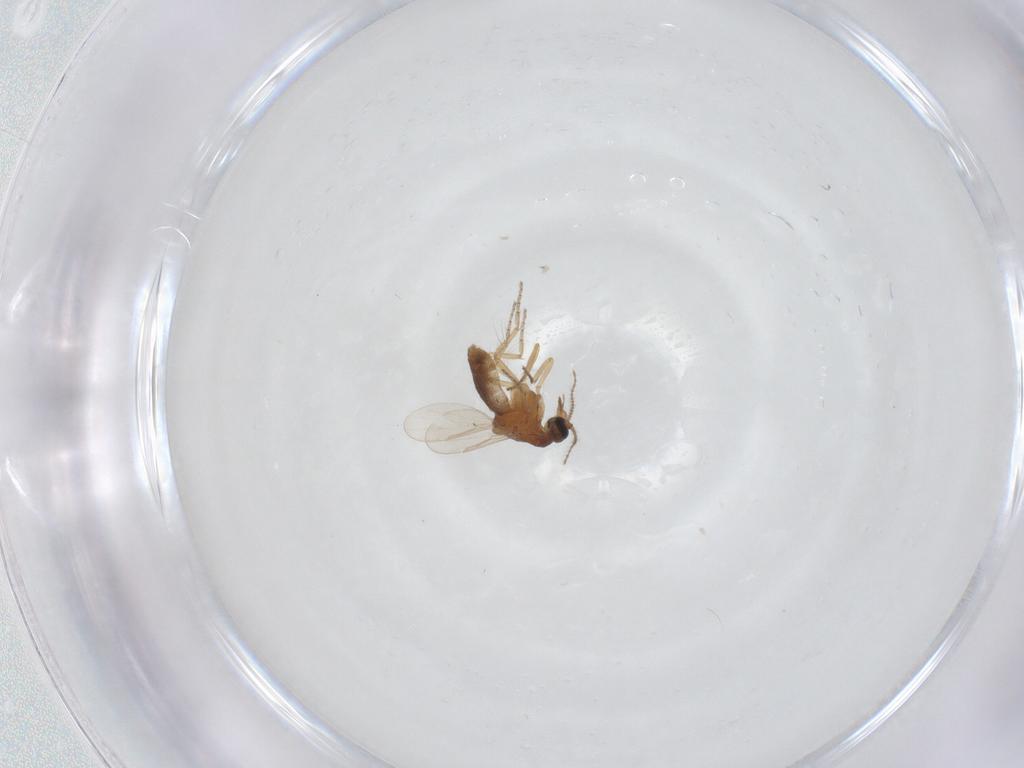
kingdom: Animalia
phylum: Arthropoda
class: Insecta
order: Diptera
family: Ceratopogonidae
